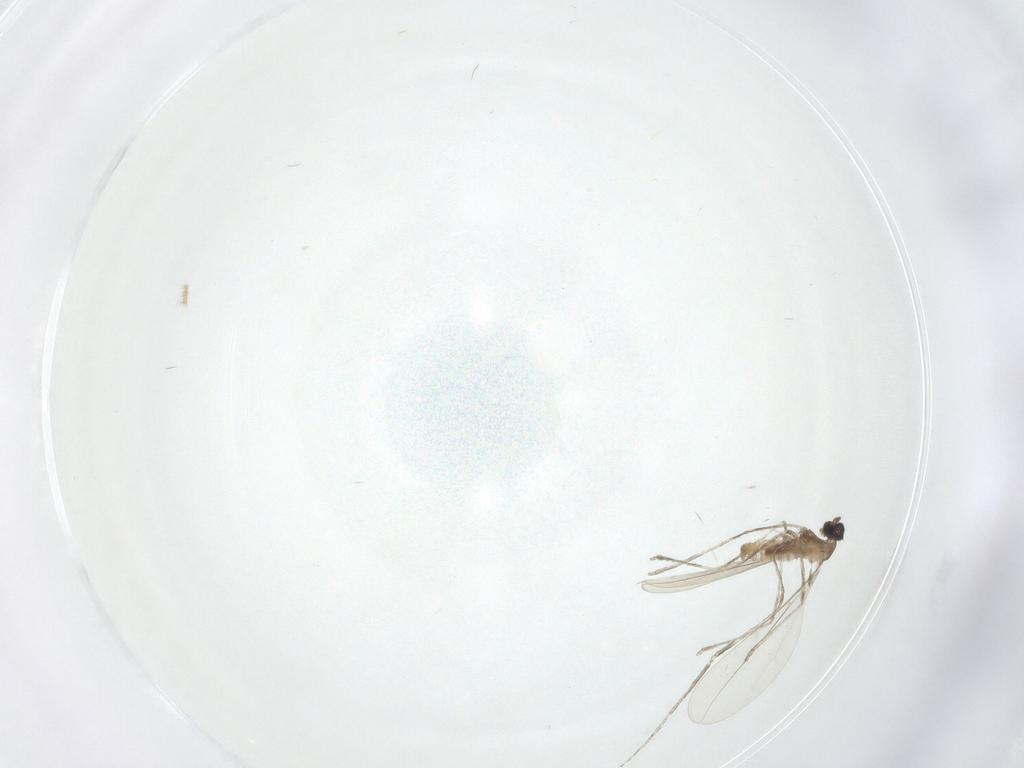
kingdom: Animalia
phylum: Arthropoda
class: Insecta
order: Diptera
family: Cecidomyiidae
